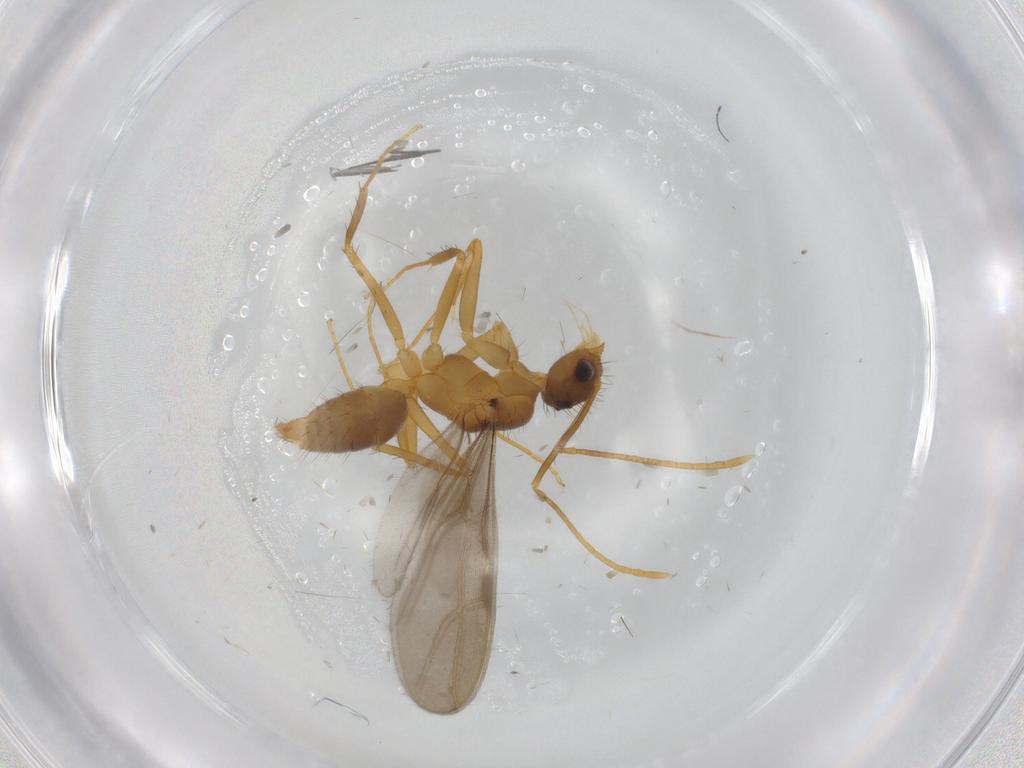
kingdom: Animalia
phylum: Arthropoda
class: Insecta
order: Hymenoptera
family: Formicidae
